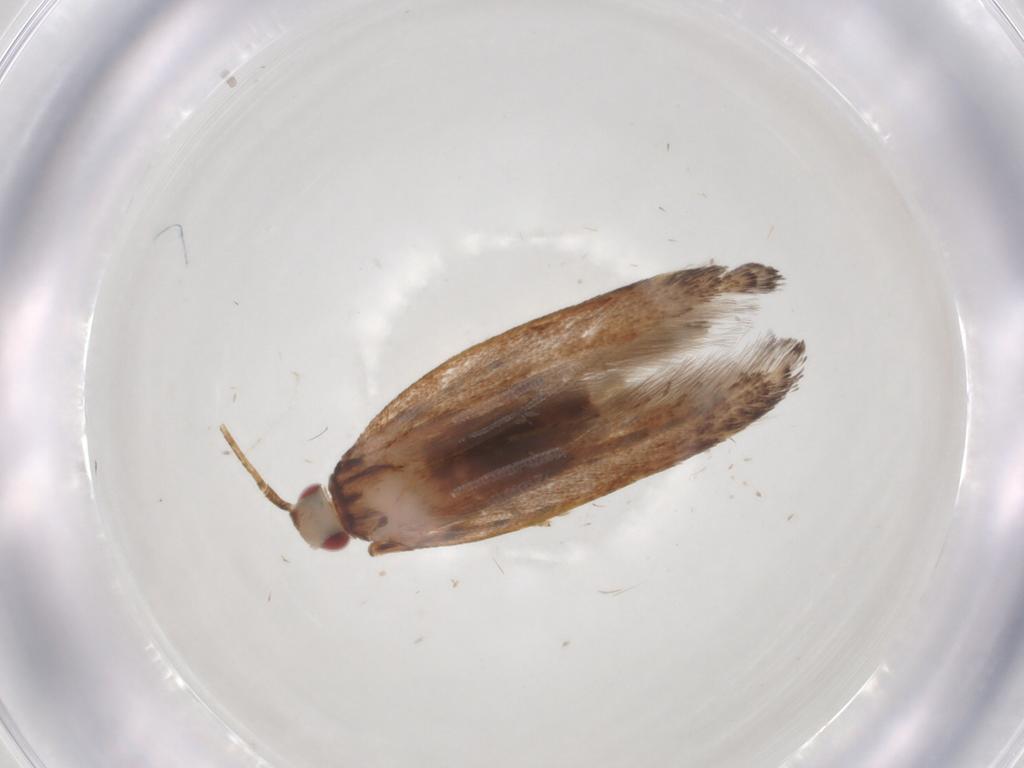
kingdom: Animalia
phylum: Arthropoda
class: Insecta
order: Lepidoptera
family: Cosmopterigidae
